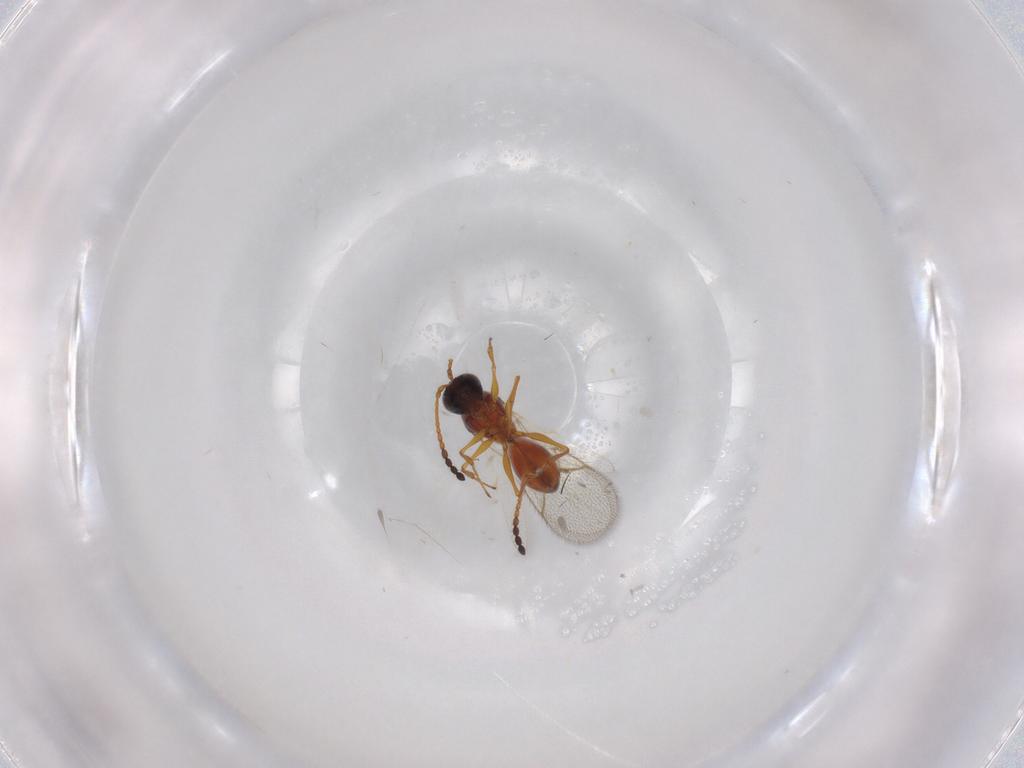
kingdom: Animalia
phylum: Arthropoda
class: Insecta
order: Hymenoptera
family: Figitidae
